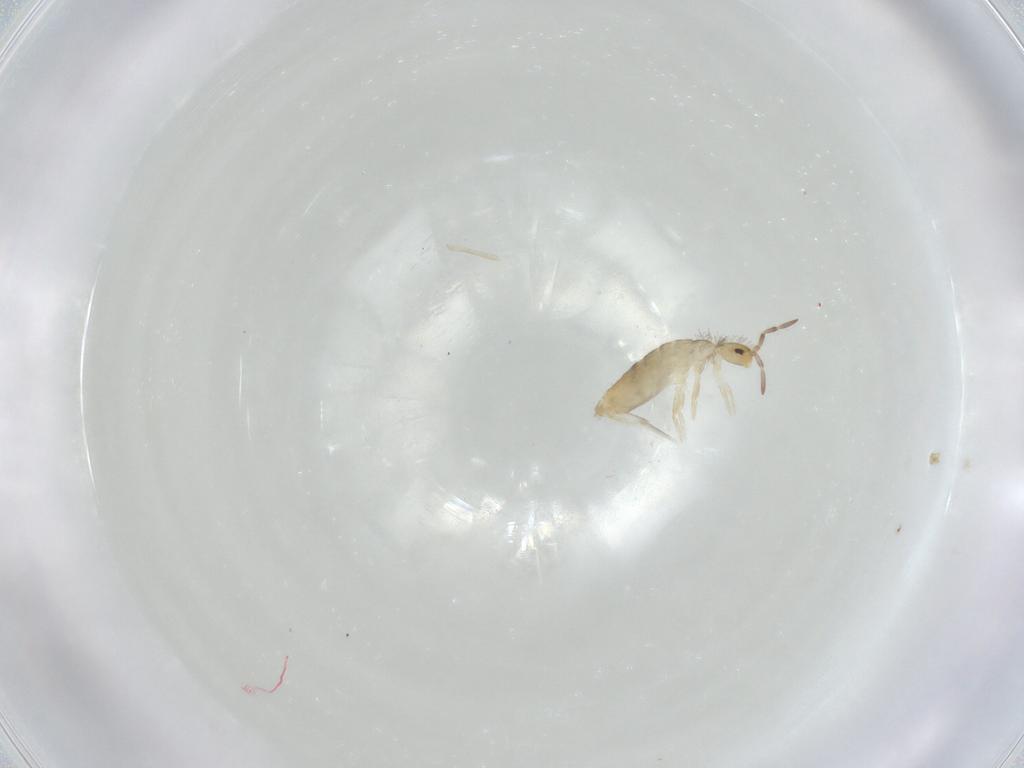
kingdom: Animalia
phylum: Arthropoda
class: Collembola
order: Entomobryomorpha
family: Entomobryidae
